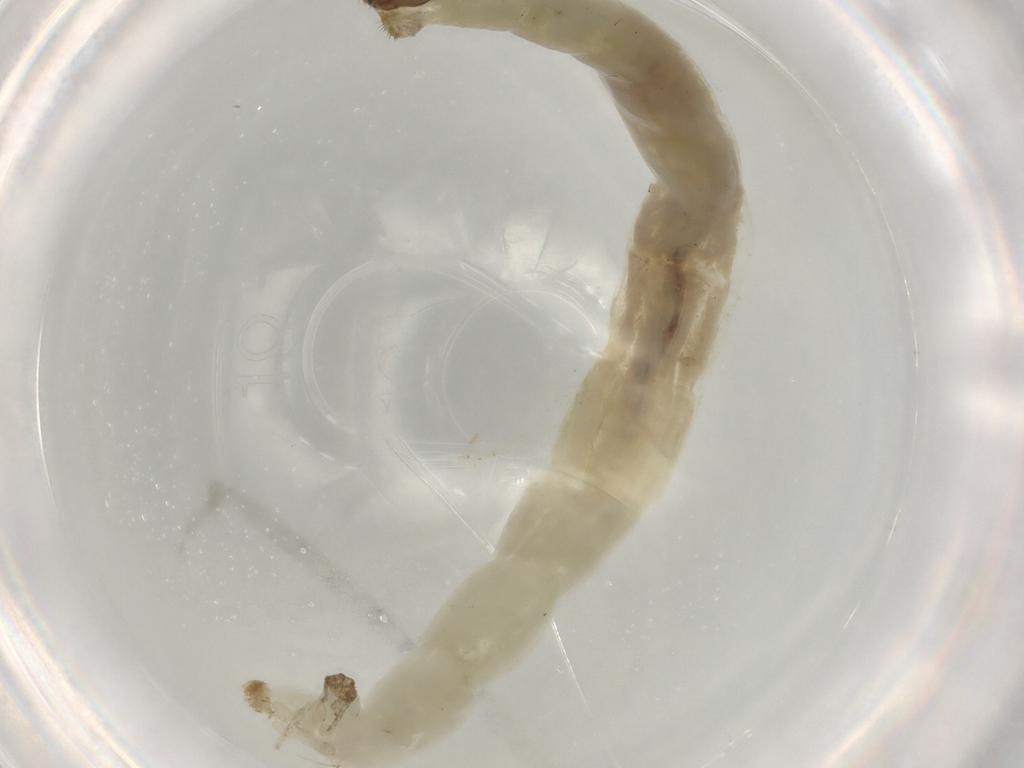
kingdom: Animalia
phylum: Arthropoda
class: Insecta
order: Diptera
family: Chironomidae
